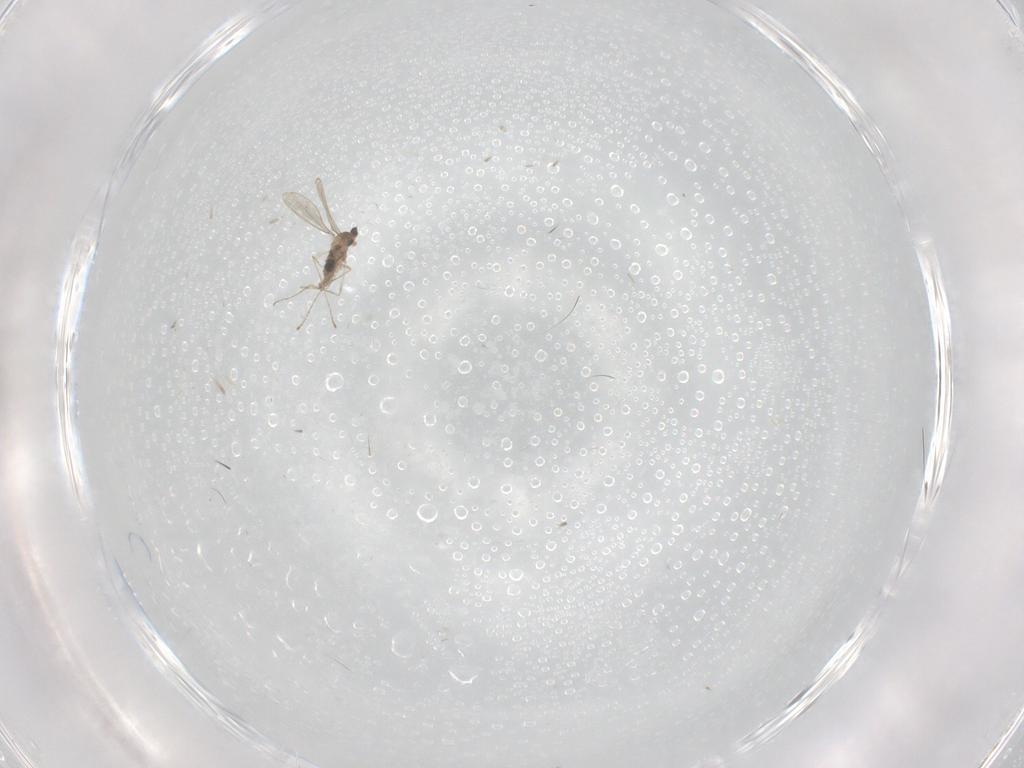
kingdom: Animalia
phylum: Arthropoda
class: Insecta
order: Diptera
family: Cecidomyiidae
